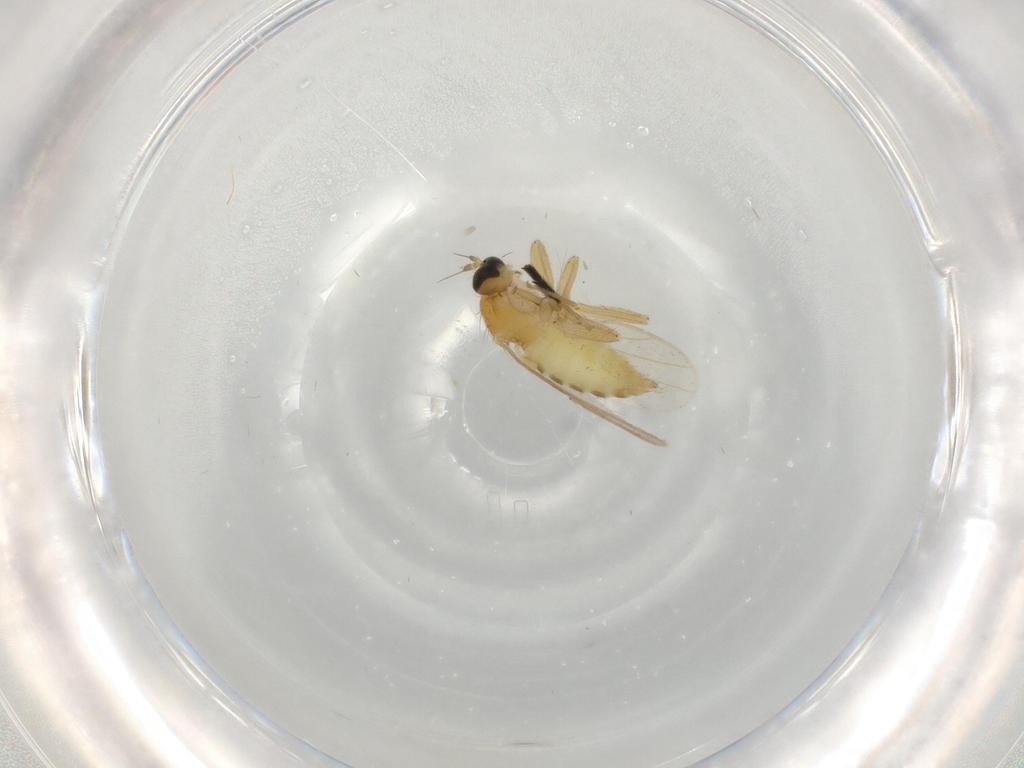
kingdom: Animalia
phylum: Arthropoda
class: Insecta
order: Diptera
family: Hybotidae
